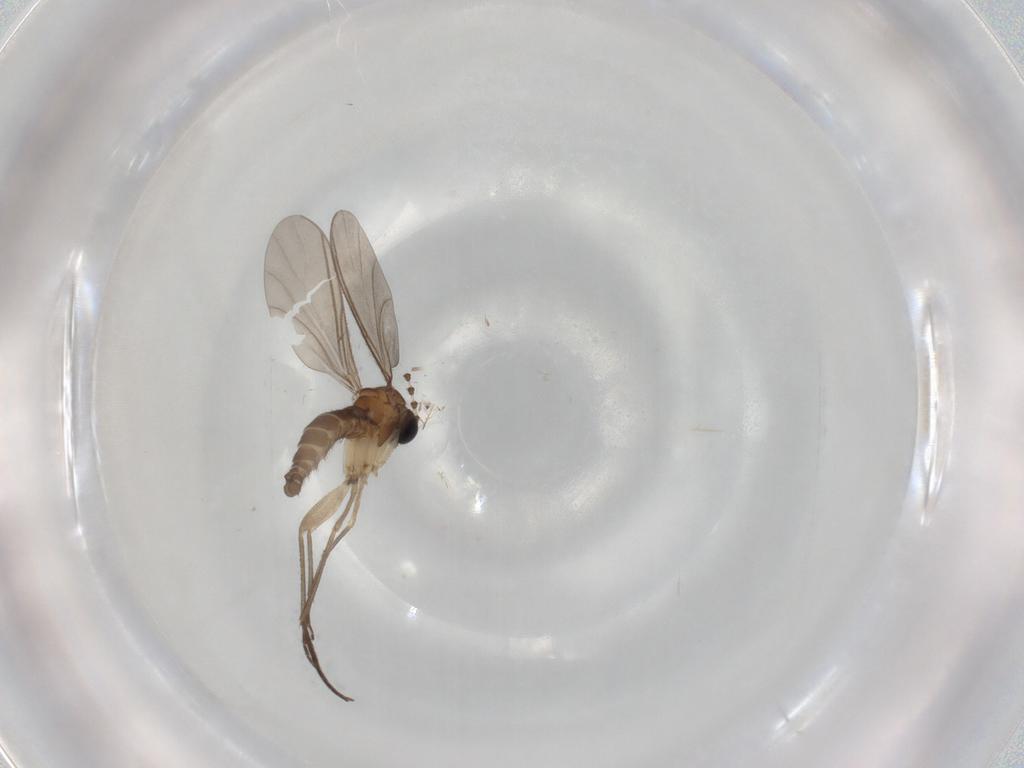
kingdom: Animalia
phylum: Arthropoda
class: Insecta
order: Diptera
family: Sciaridae
